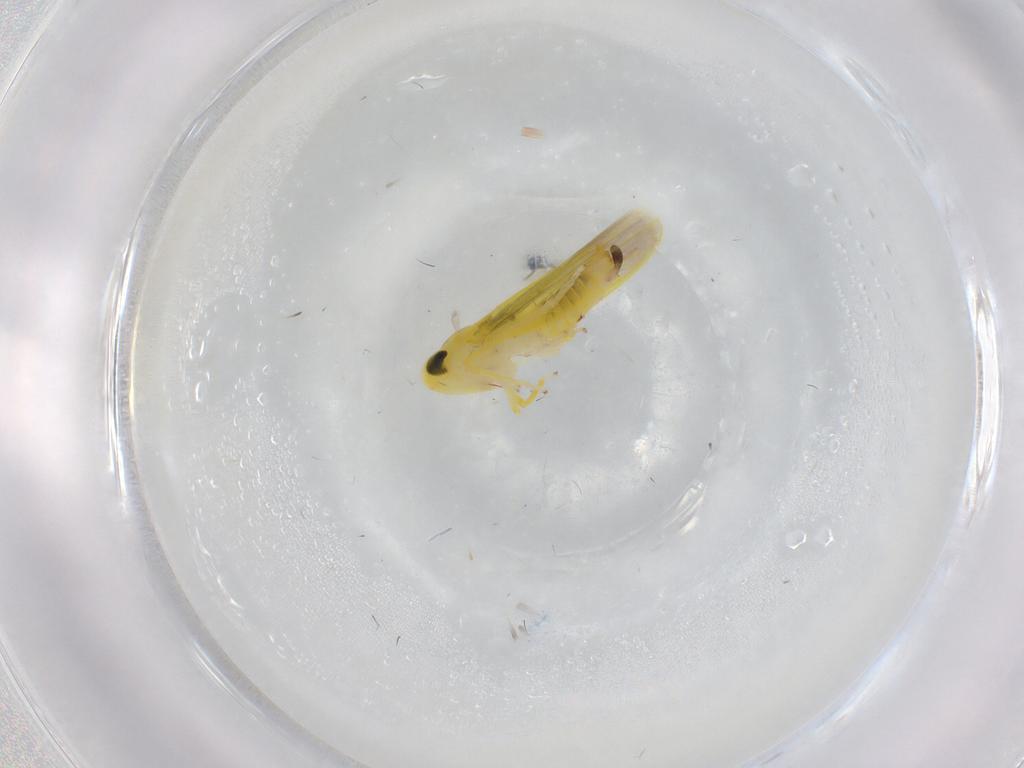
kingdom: Animalia
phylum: Arthropoda
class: Insecta
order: Hemiptera
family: Cicadellidae
